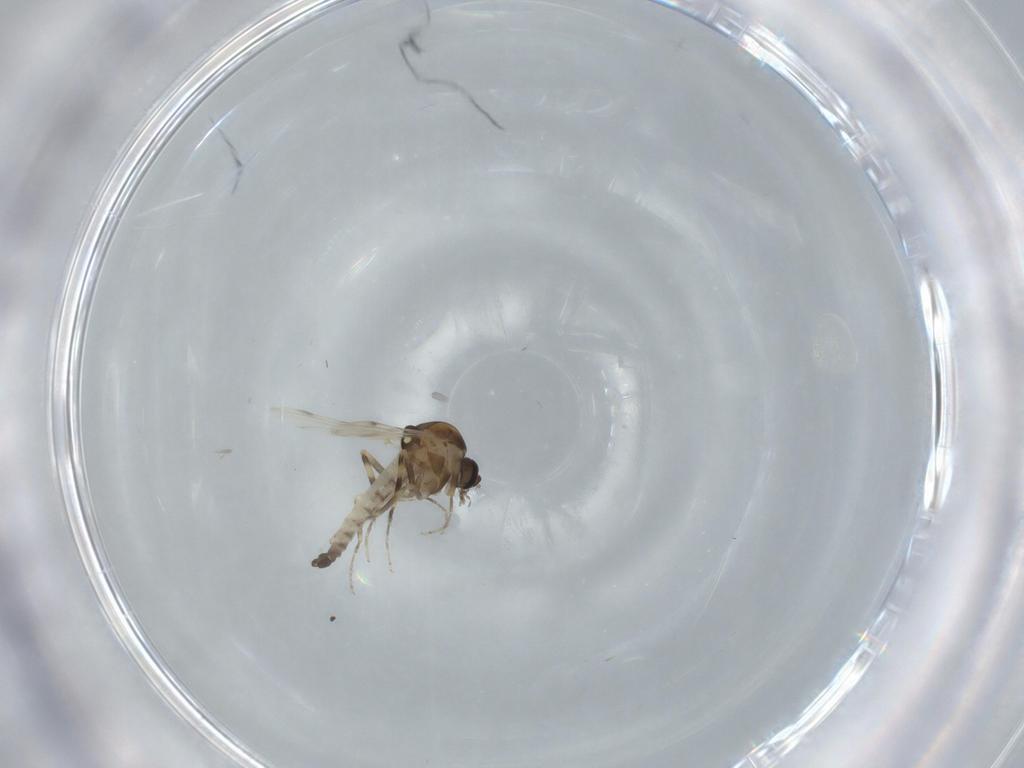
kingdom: Animalia
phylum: Arthropoda
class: Insecta
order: Diptera
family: Ceratopogonidae
